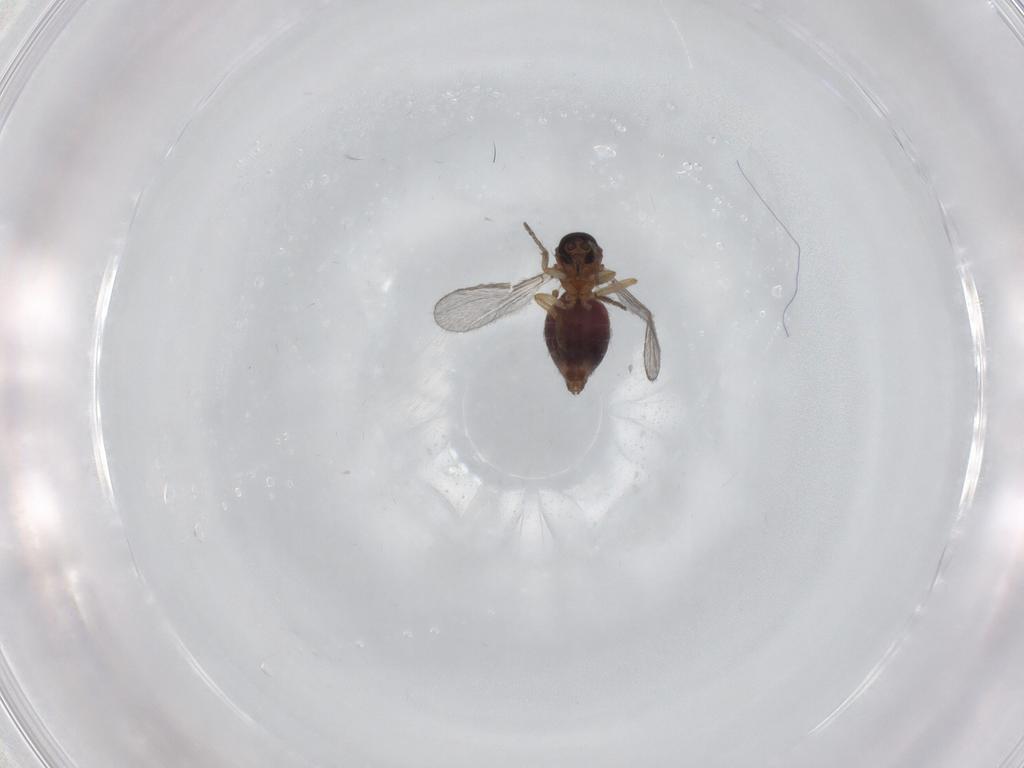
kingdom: Animalia
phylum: Arthropoda
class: Insecta
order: Diptera
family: Ceratopogonidae
